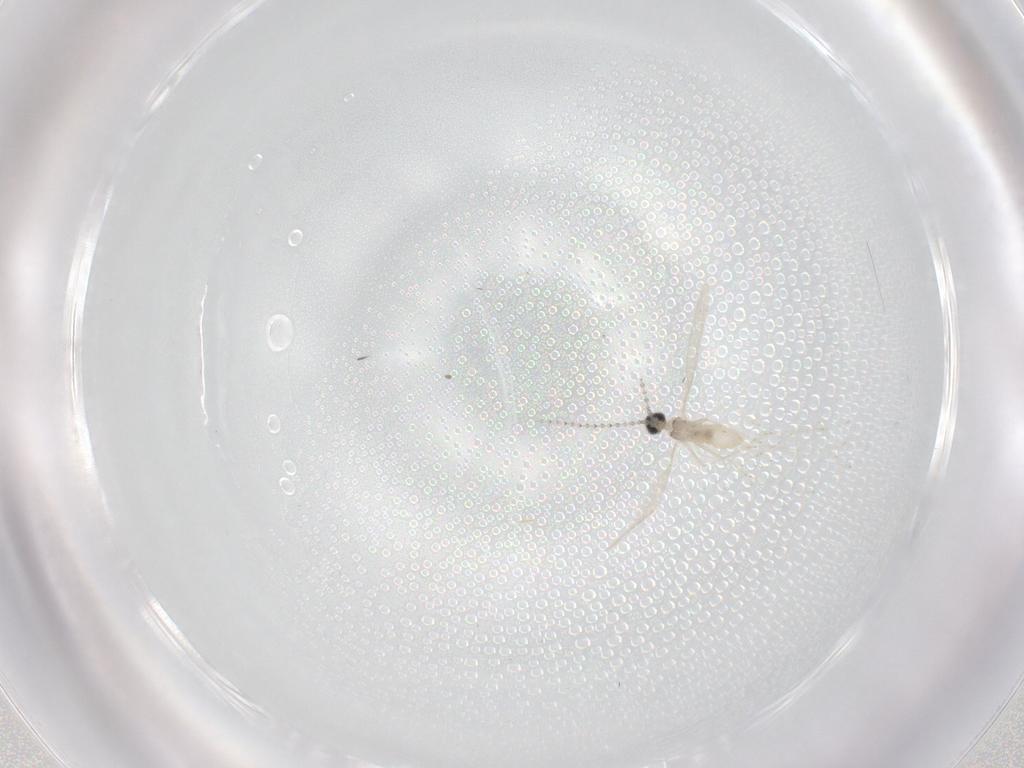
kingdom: Animalia
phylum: Arthropoda
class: Insecta
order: Diptera
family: Cecidomyiidae
